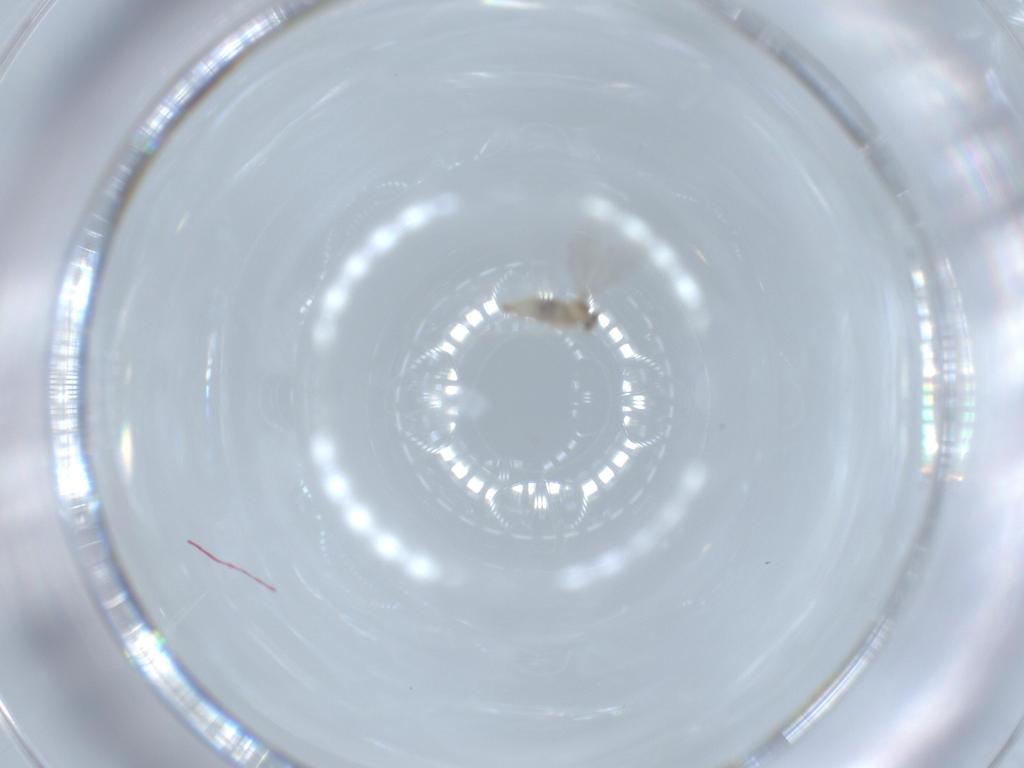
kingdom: Animalia
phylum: Arthropoda
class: Insecta
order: Diptera
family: Cecidomyiidae
